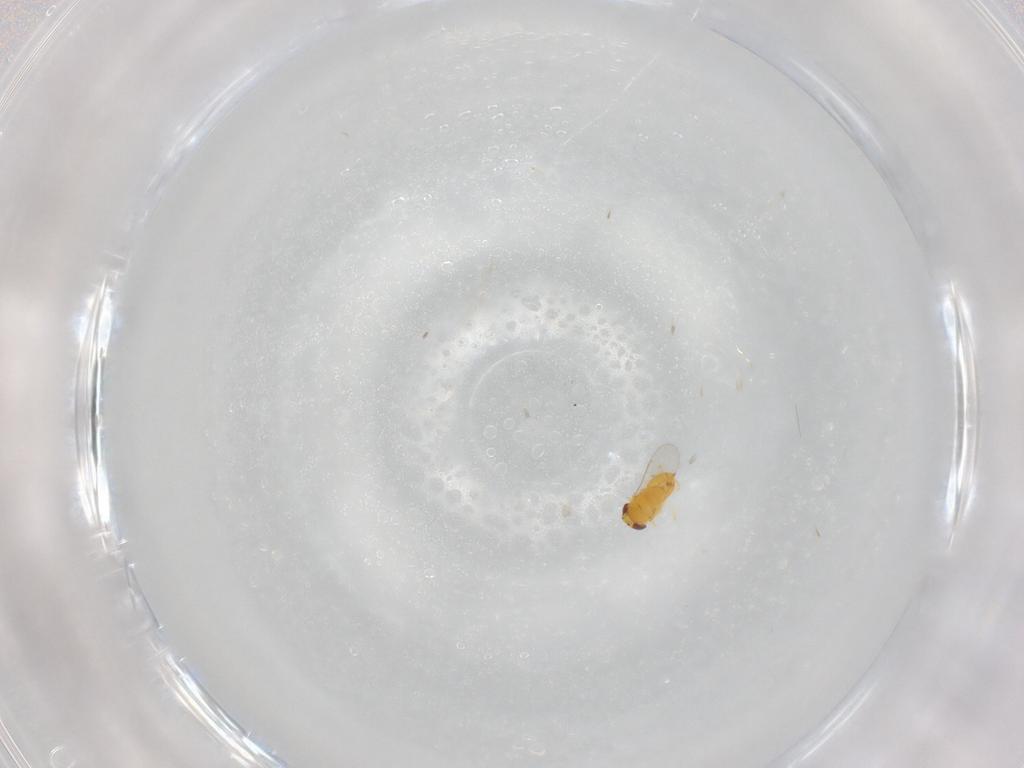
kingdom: Animalia
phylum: Arthropoda
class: Insecta
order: Hymenoptera
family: Aphelinidae
